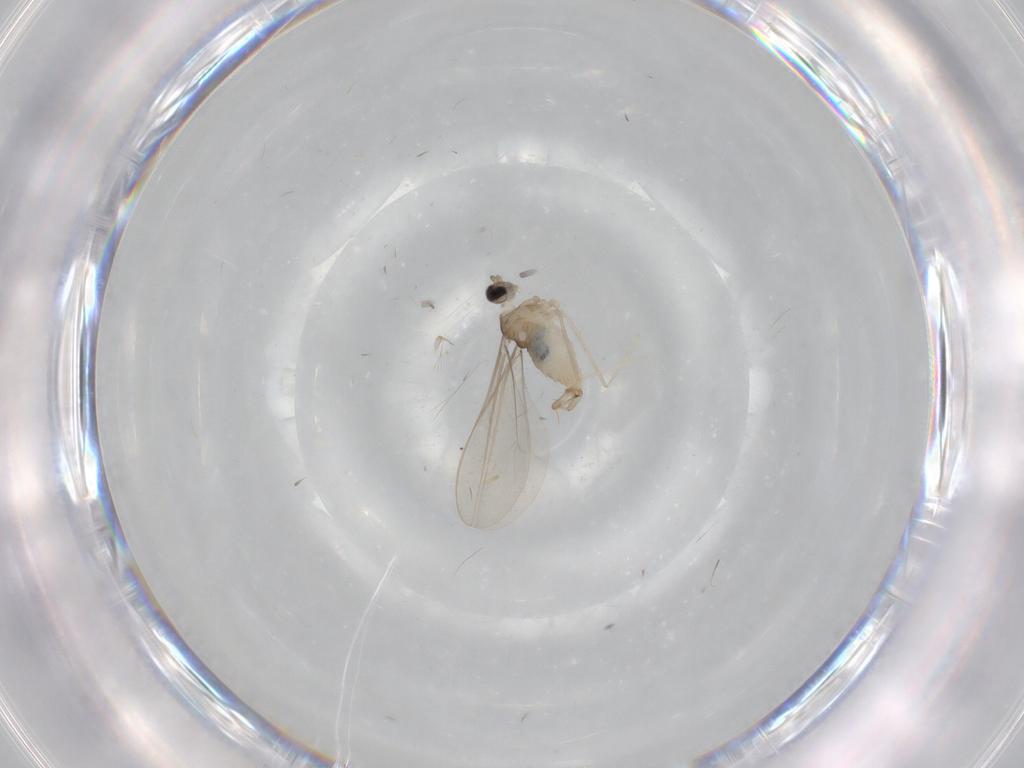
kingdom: Animalia
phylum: Arthropoda
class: Insecta
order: Diptera
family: Cecidomyiidae
